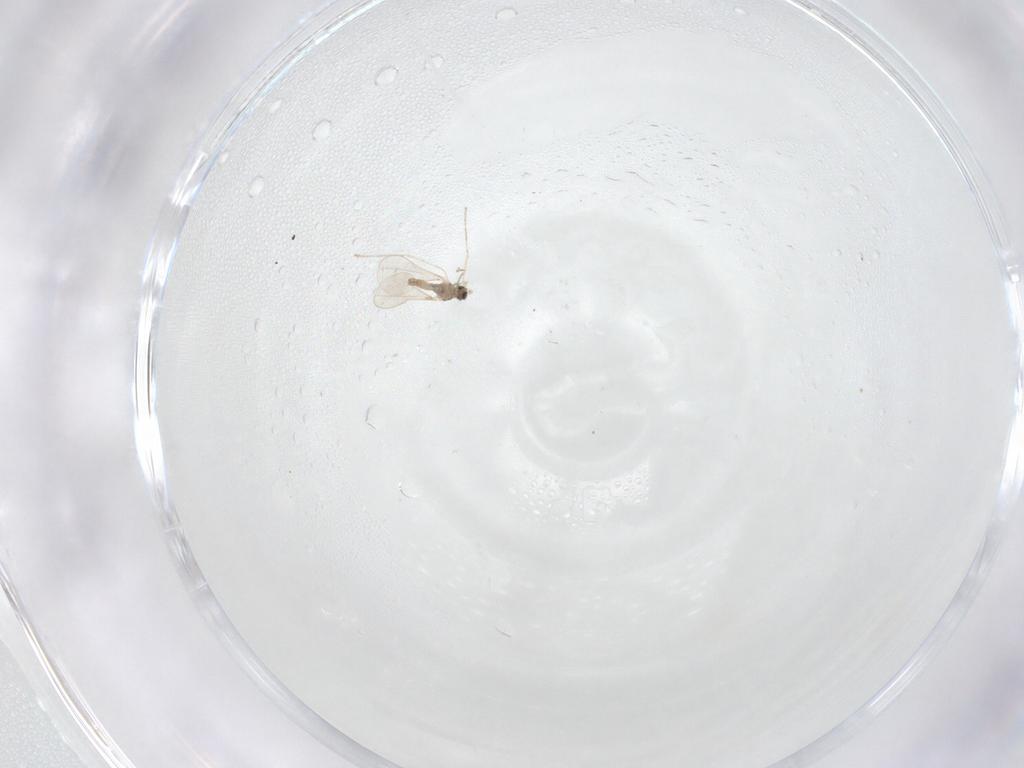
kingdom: Animalia
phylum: Arthropoda
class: Insecta
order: Diptera
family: Cecidomyiidae
